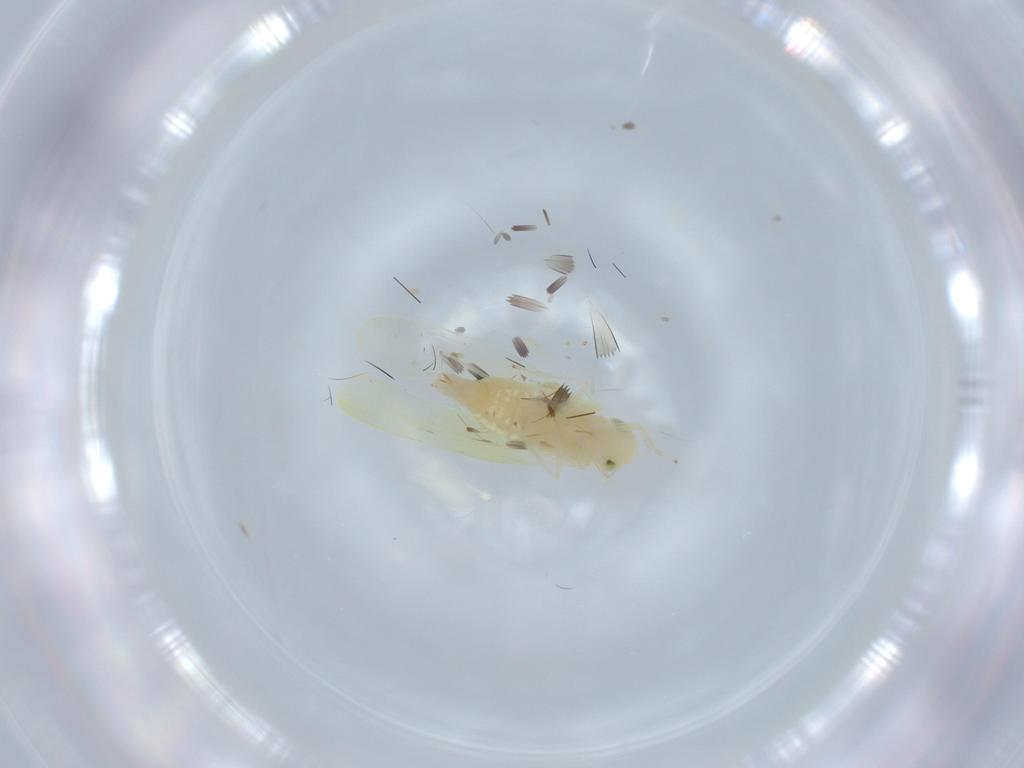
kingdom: Animalia
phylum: Arthropoda
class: Insecta
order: Hemiptera
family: Cicadellidae
